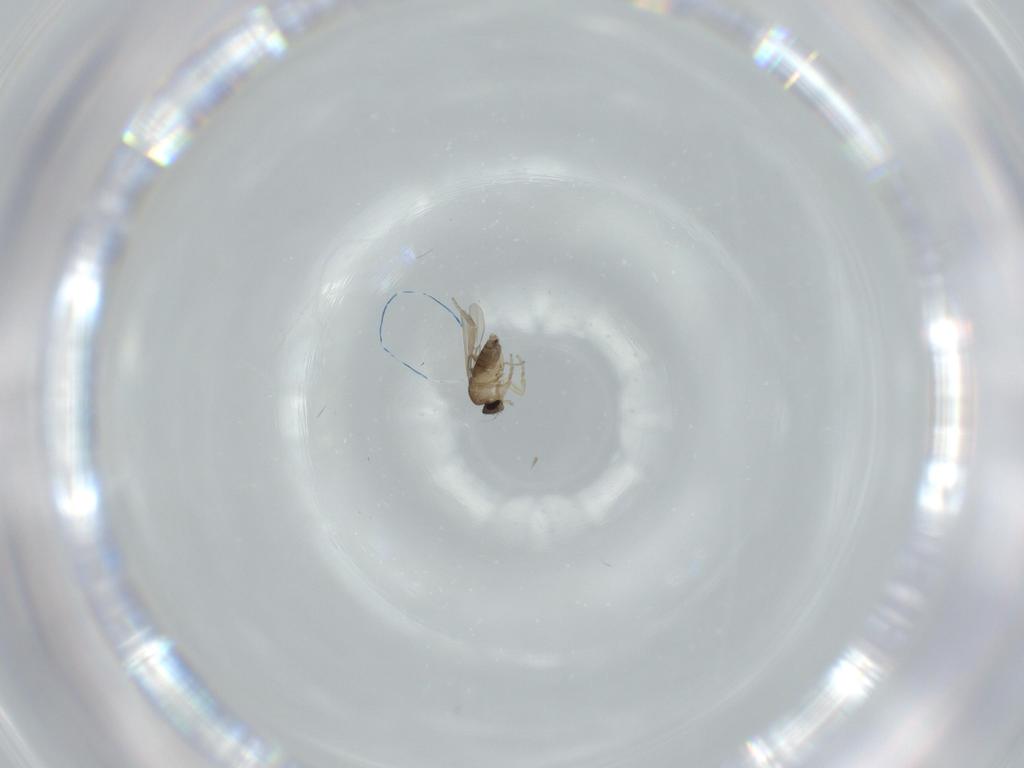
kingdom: Animalia
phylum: Arthropoda
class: Insecta
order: Diptera
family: Phoridae
